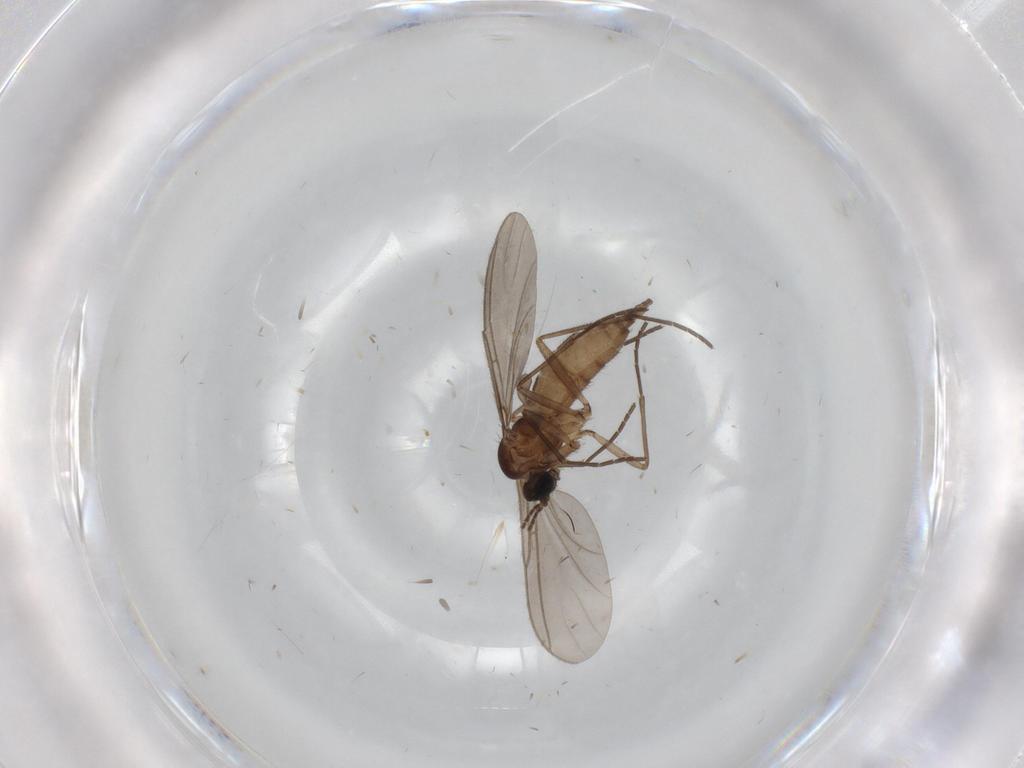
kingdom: Animalia
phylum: Arthropoda
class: Insecta
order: Diptera
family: Sciaridae
